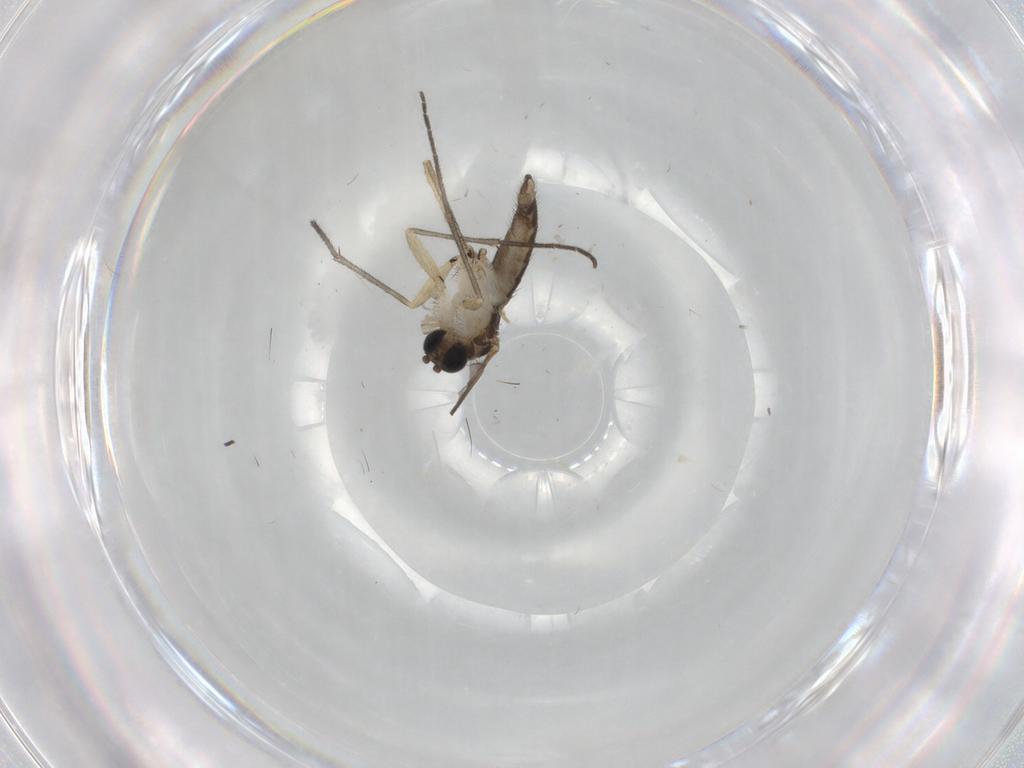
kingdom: Animalia
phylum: Arthropoda
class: Insecta
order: Diptera
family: Sciaridae
